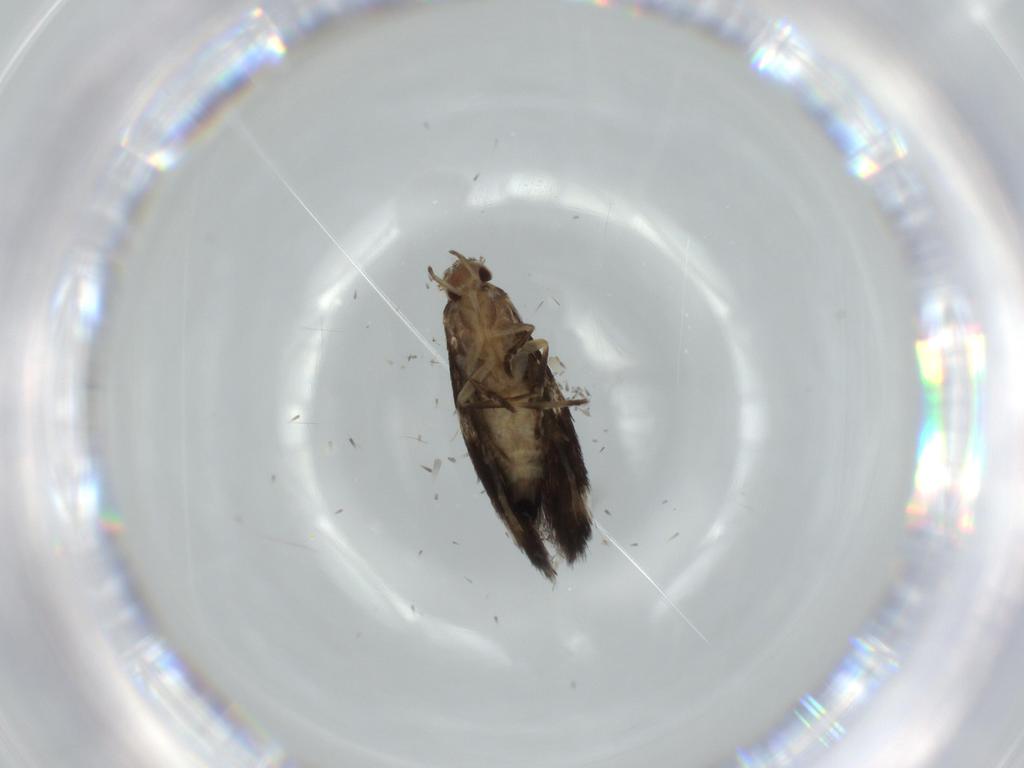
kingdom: Animalia
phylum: Arthropoda
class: Insecta
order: Lepidoptera
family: Cosmopterigidae
